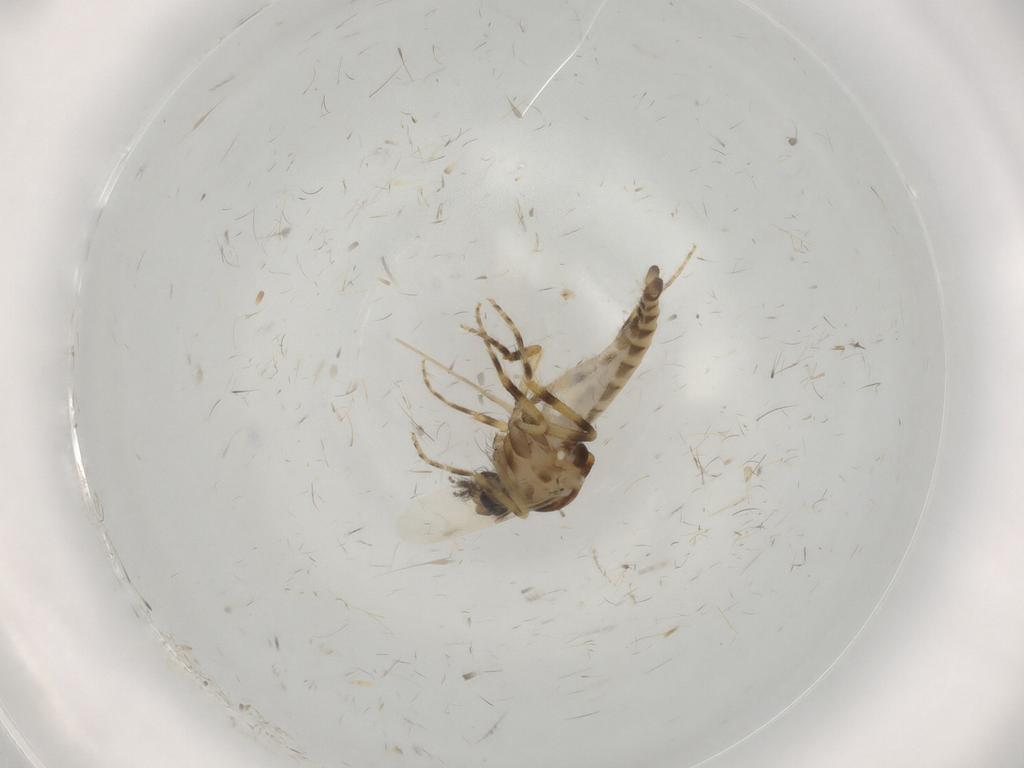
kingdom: Animalia
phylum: Arthropoda
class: Insecta
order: Diptera
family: Ceratopogonidae
